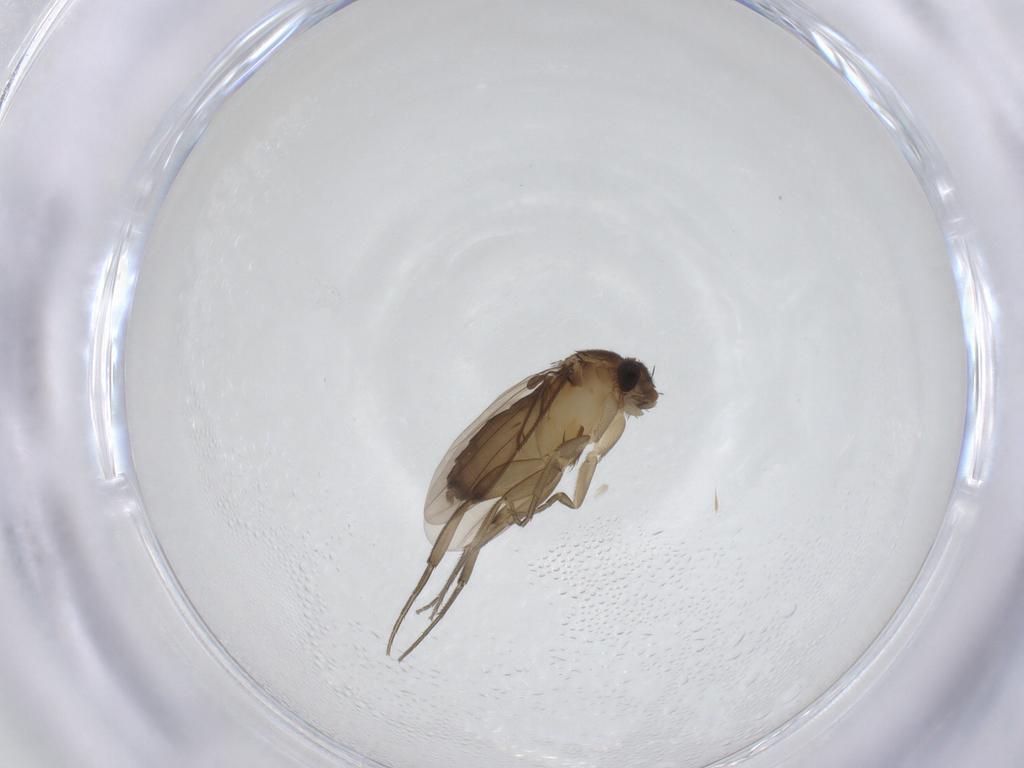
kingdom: Animalia
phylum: Arthropoda
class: Insecta
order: Diptera
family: Phoridae
